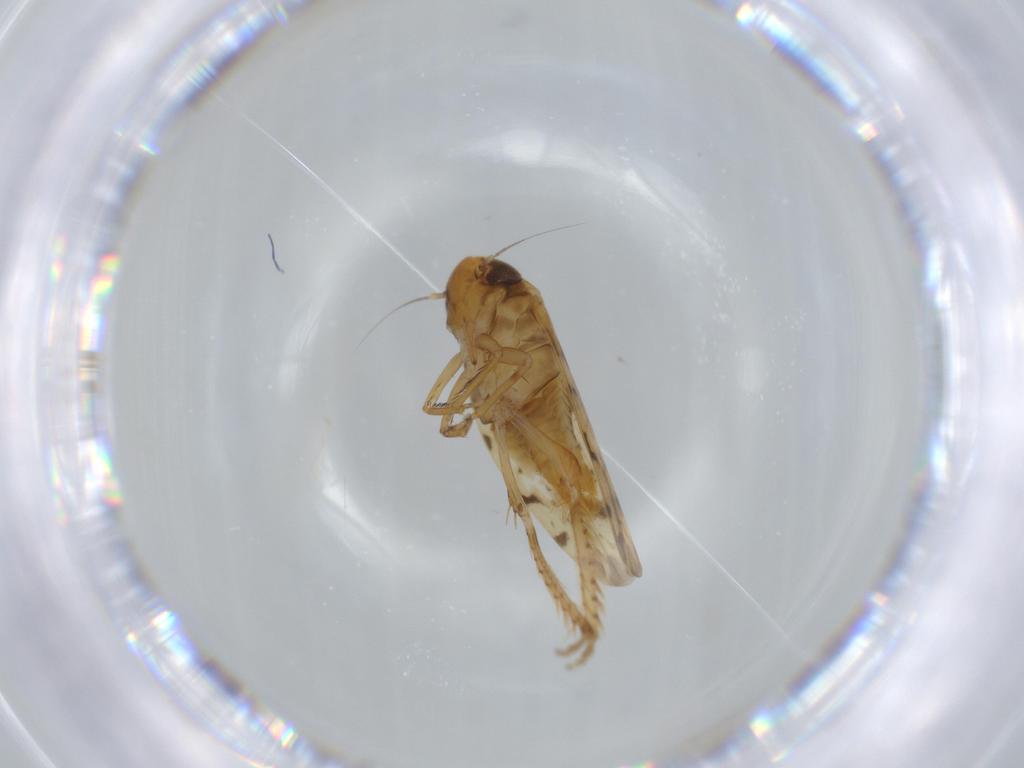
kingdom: Animalia
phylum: Arthropoda
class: Insecta
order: Hemiptera
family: Cicadellidae
